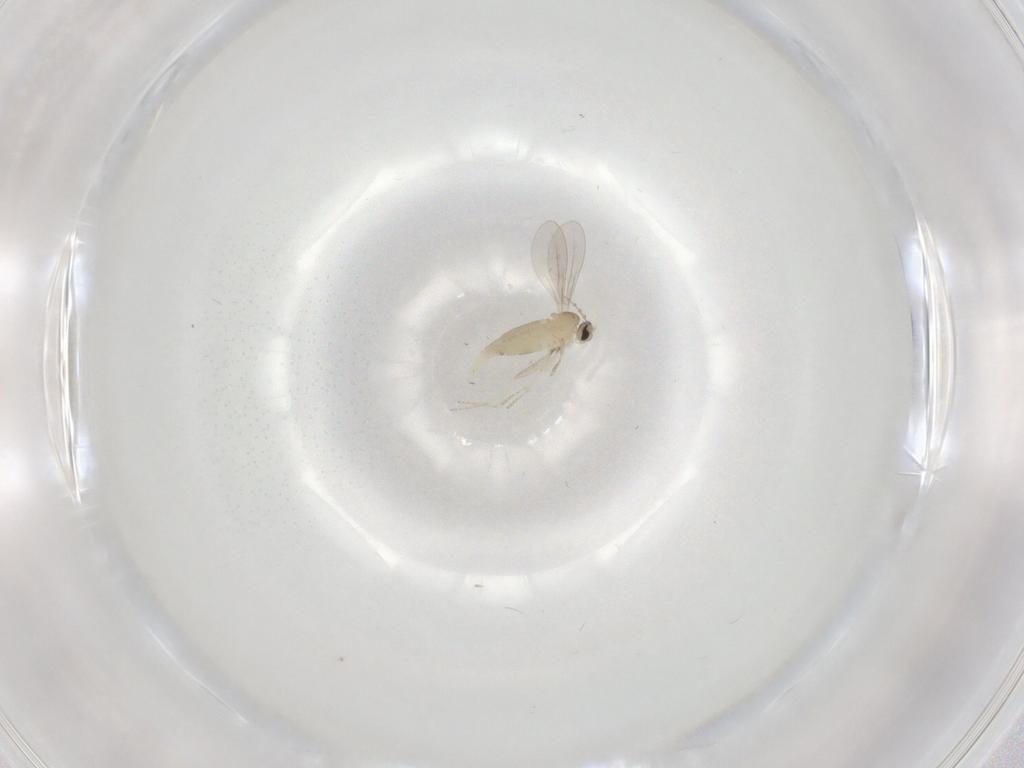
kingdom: Animalia
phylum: Arthropoda
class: Insecta
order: Diptera
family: Cecidomyiidae
